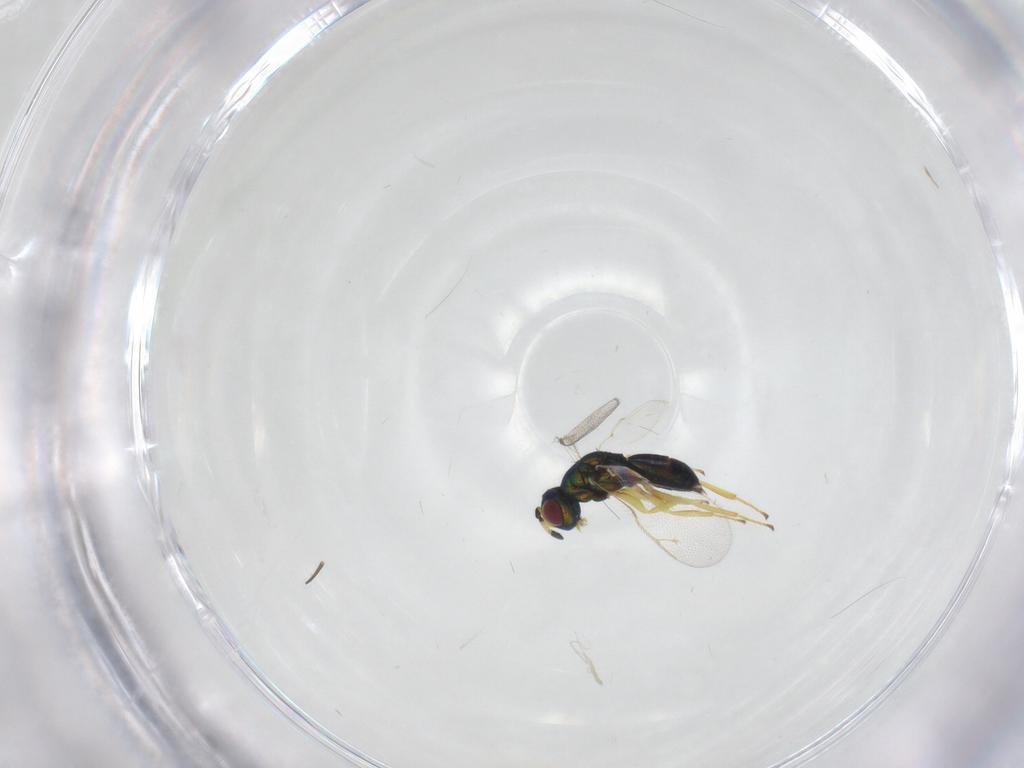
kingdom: Animalia
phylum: Arthropoda
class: Insecta
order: Hymenoptera
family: Pteromalidae
